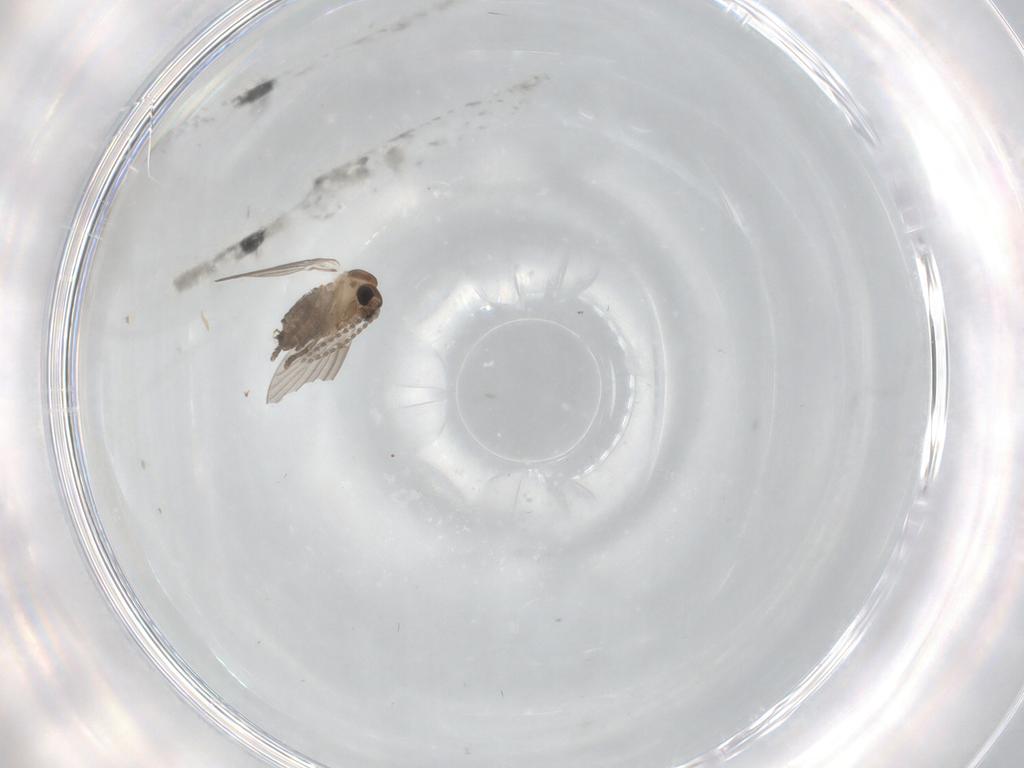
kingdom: Animalia
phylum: Arthropoda
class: Insecta
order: Diptera
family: Cecidomyiidae
